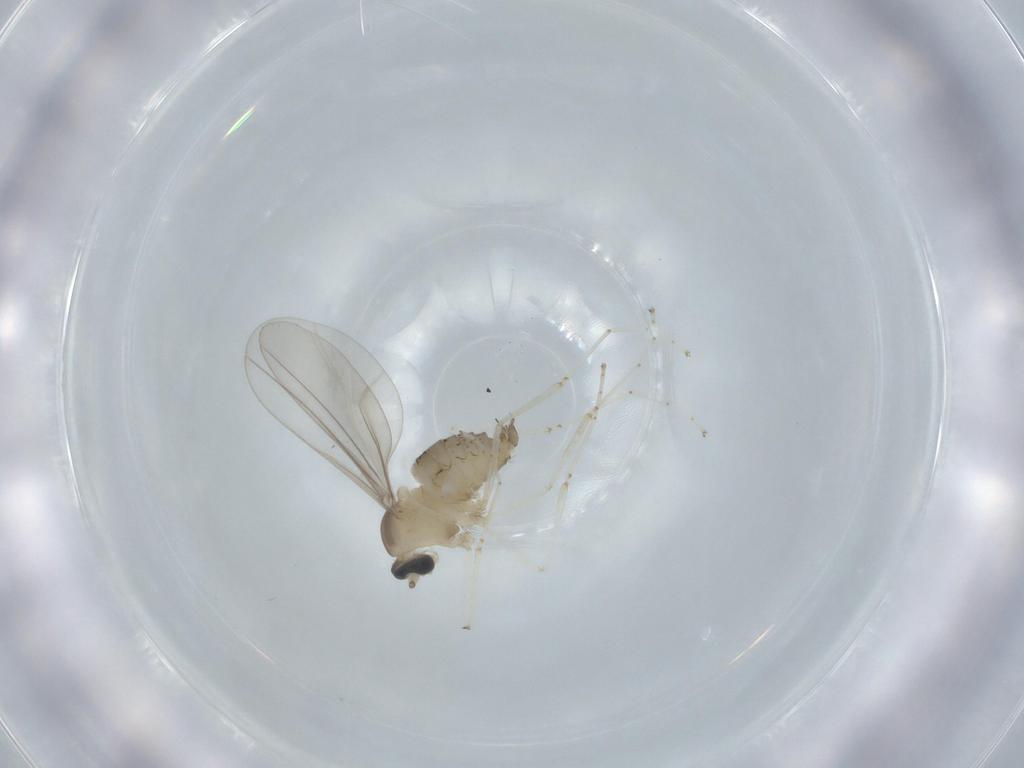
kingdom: Animalia
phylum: Arthropoda
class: Insecta
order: Diptera
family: Cecidomyiidae
